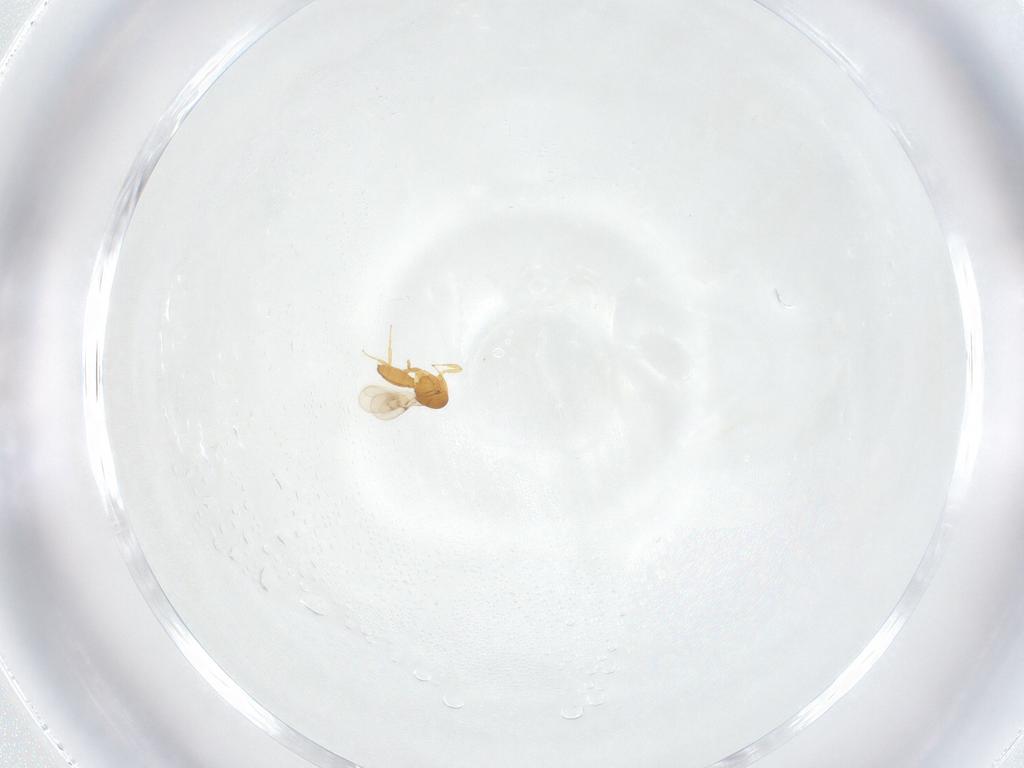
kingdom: Animalia
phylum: Arthropoda
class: Insecta
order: Hymenoptera
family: Scelionidae
